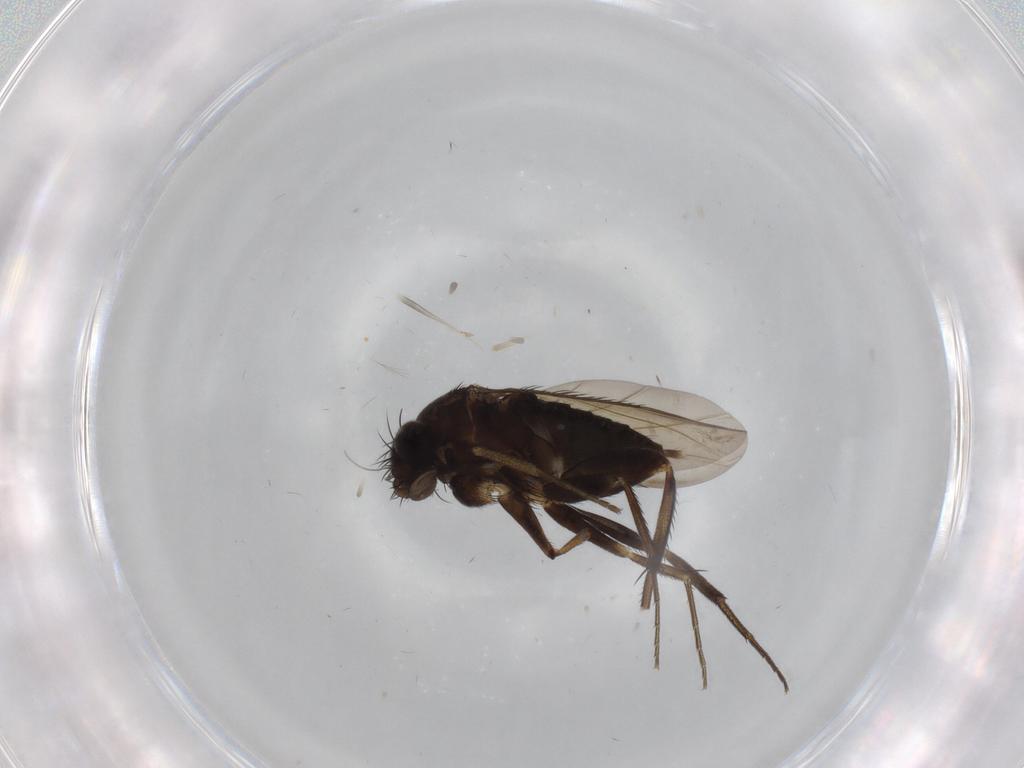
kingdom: Animalia
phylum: Arthropoda
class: Insecta
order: Diptera
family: Phoridae
